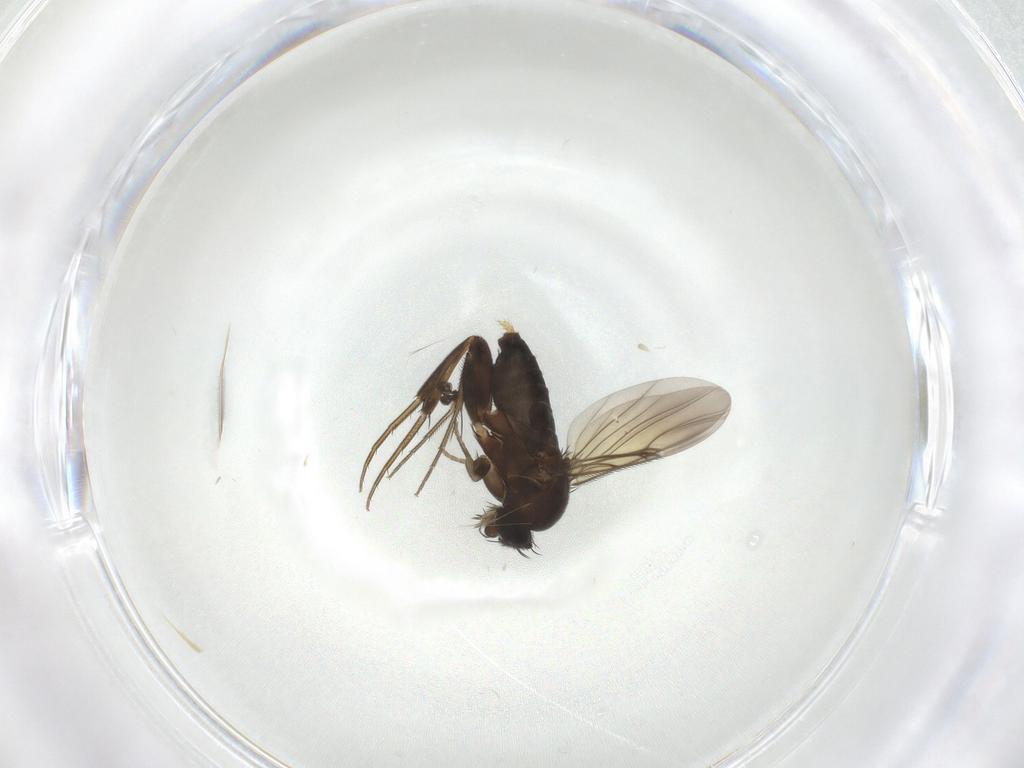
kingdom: Animalia
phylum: Arthropoda
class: Insecta
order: Diptera
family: Phoridae
